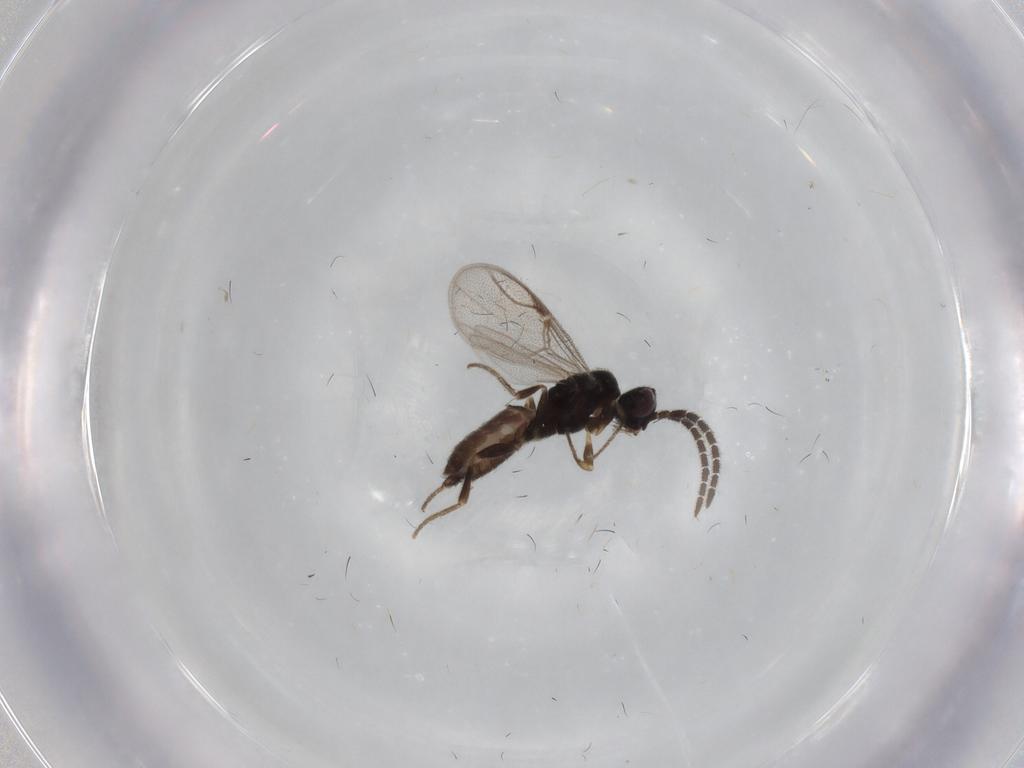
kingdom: Animalia
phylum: Arthropoda
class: Insecta
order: Hymenoptera
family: Dryinidae
